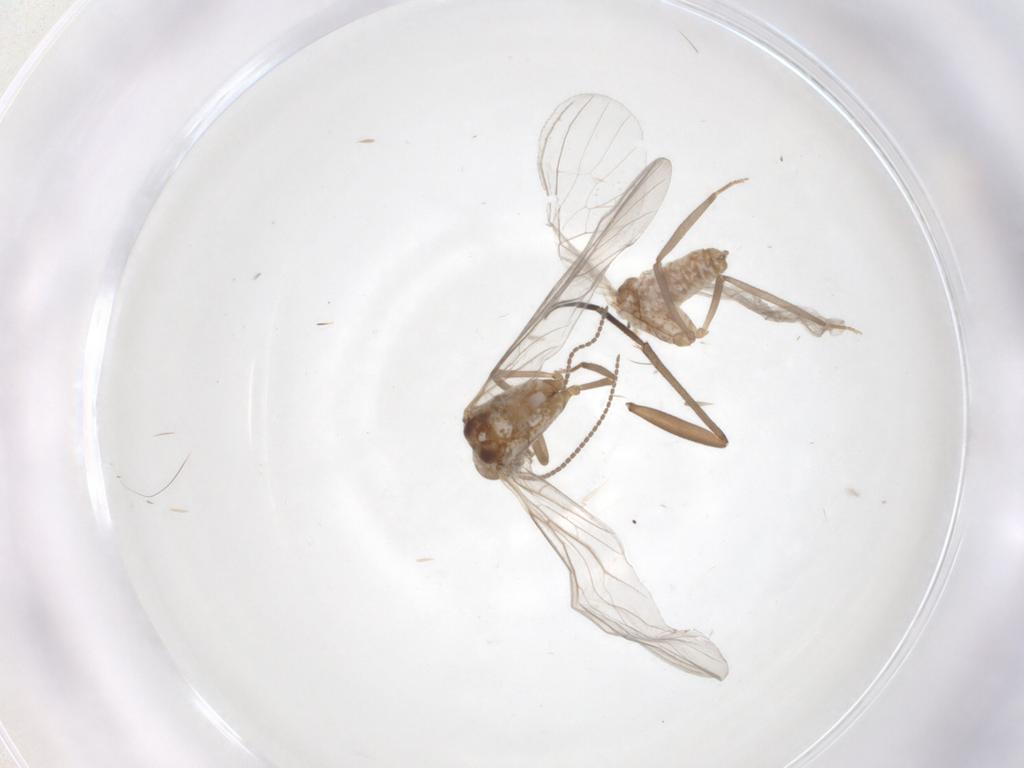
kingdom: Animalia
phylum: Arthropoda
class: Insecta
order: Neuroptera
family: Coniopterygidae
